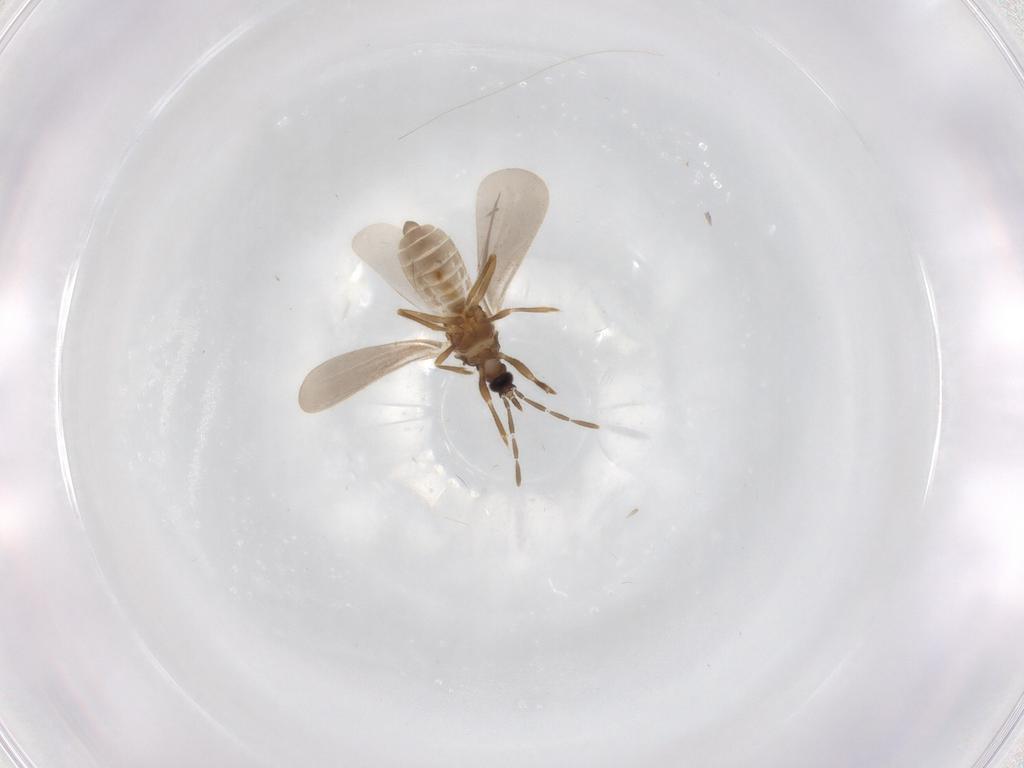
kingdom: Animalia
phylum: Arthropoda
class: Insecta
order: Hemiptera
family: Enicocephalidae
